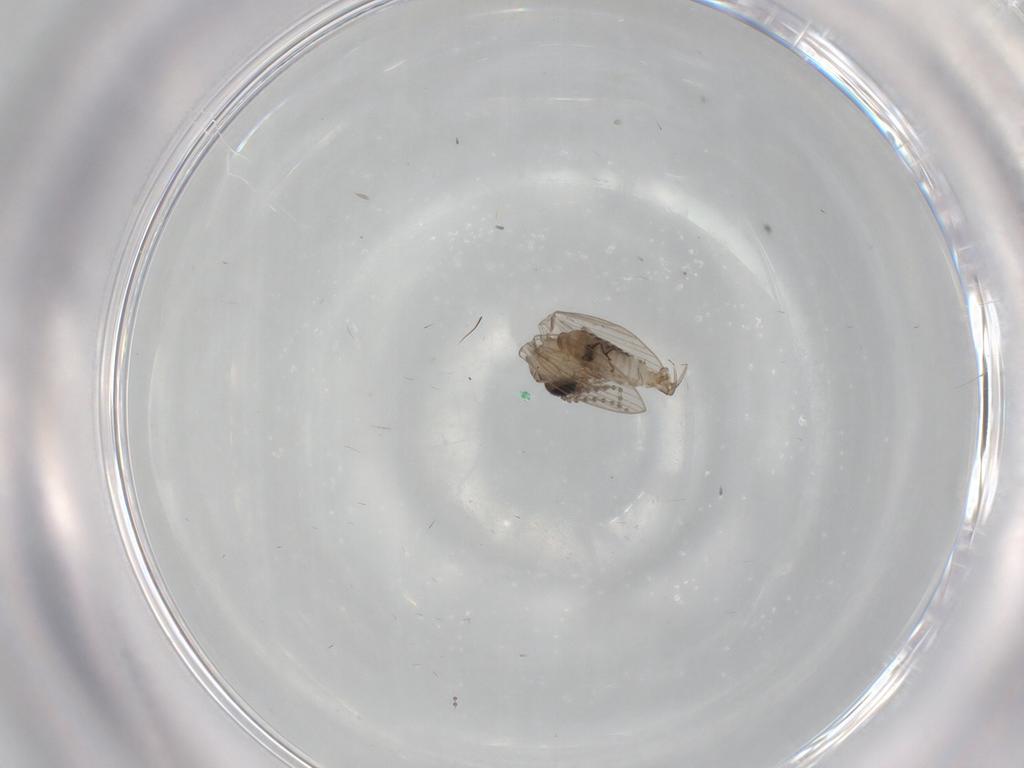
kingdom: Animalia
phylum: Arthropoda
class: Insecta
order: Diptera
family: Psychodidae
